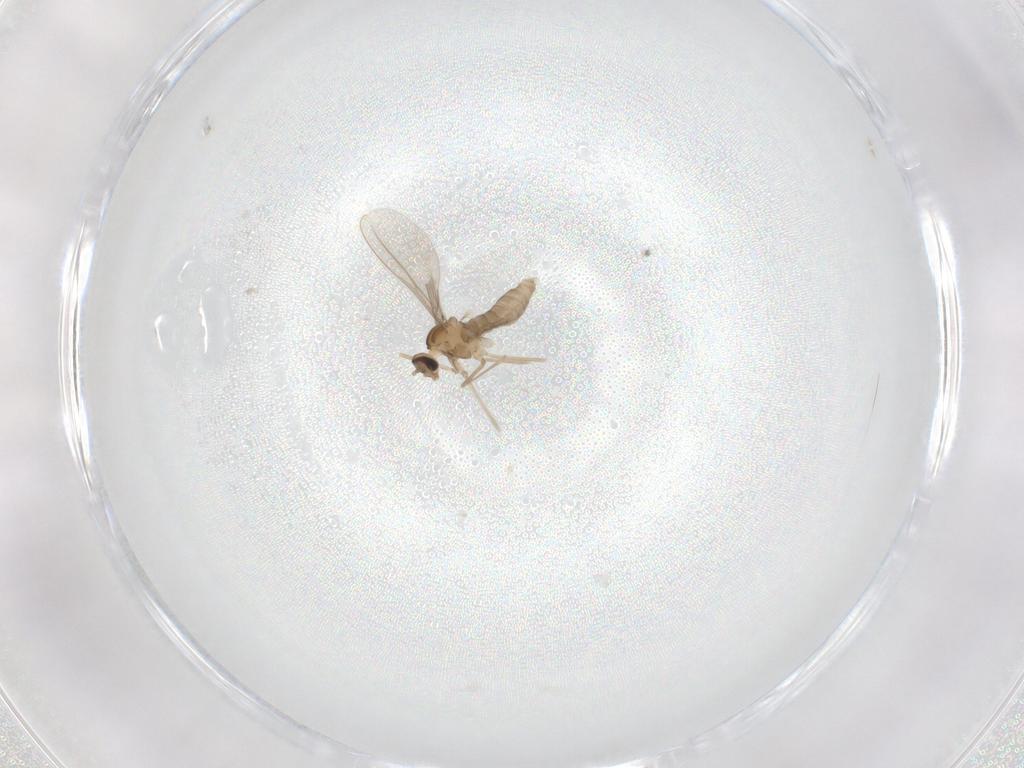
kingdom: Animalia
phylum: Arthropoda
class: Insecta
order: Diptera
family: Cecidomyiidae
